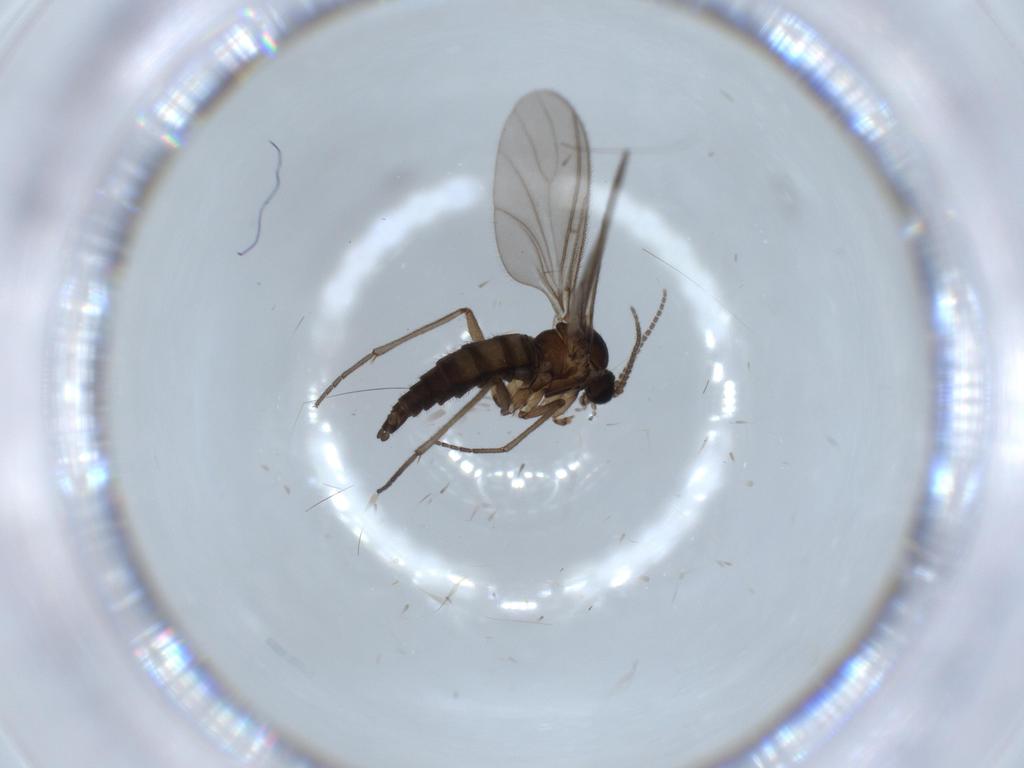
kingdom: Animalia
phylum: Arthropoda
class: Insecta
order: Diptera
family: Sciaridae
